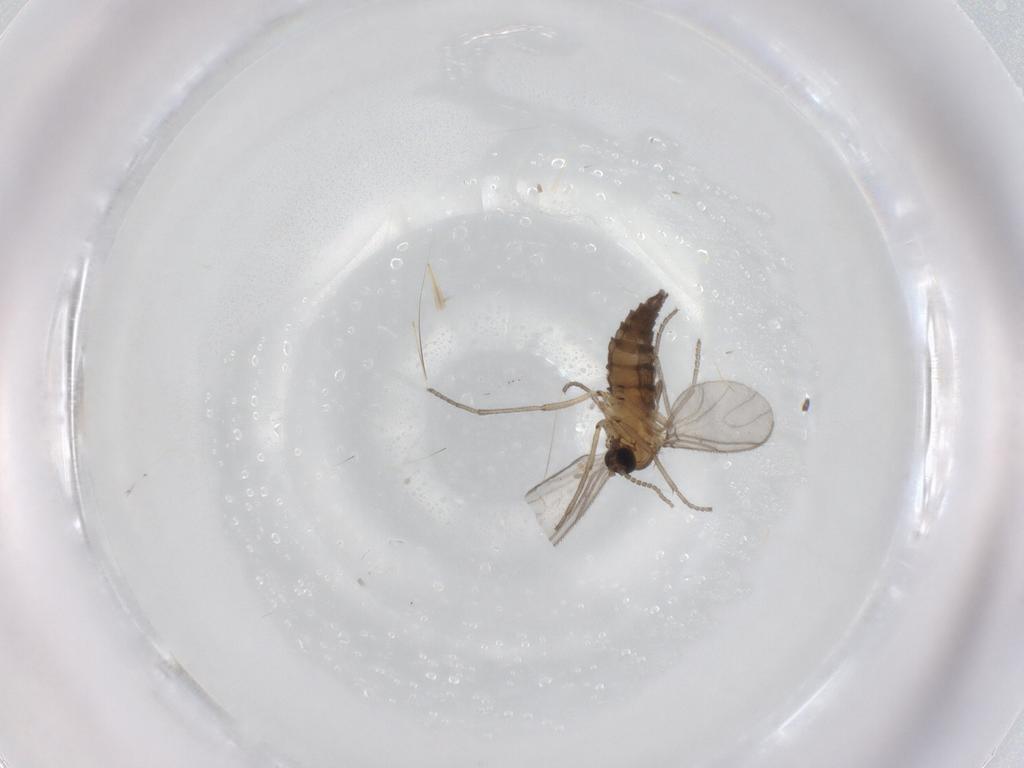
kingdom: Animalia
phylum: Arthropoda
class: Insecta
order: Diptera
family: Sciaridae
